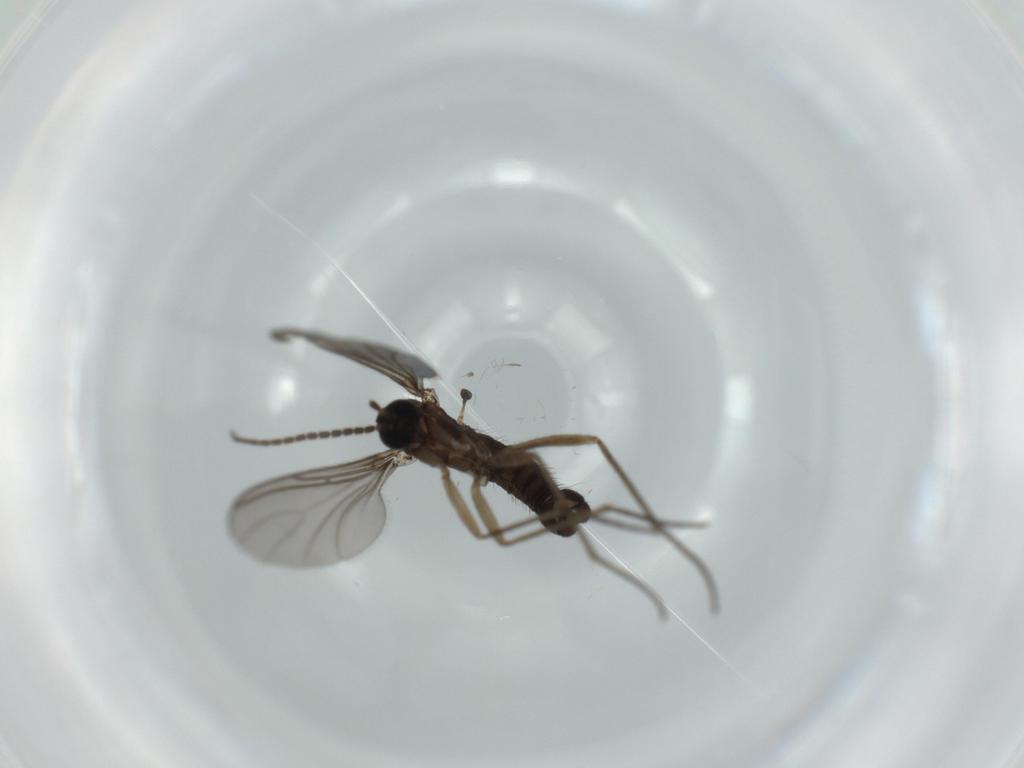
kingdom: Animalia
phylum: Arthropoda
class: Insecta
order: Diptera
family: Sciaridae
